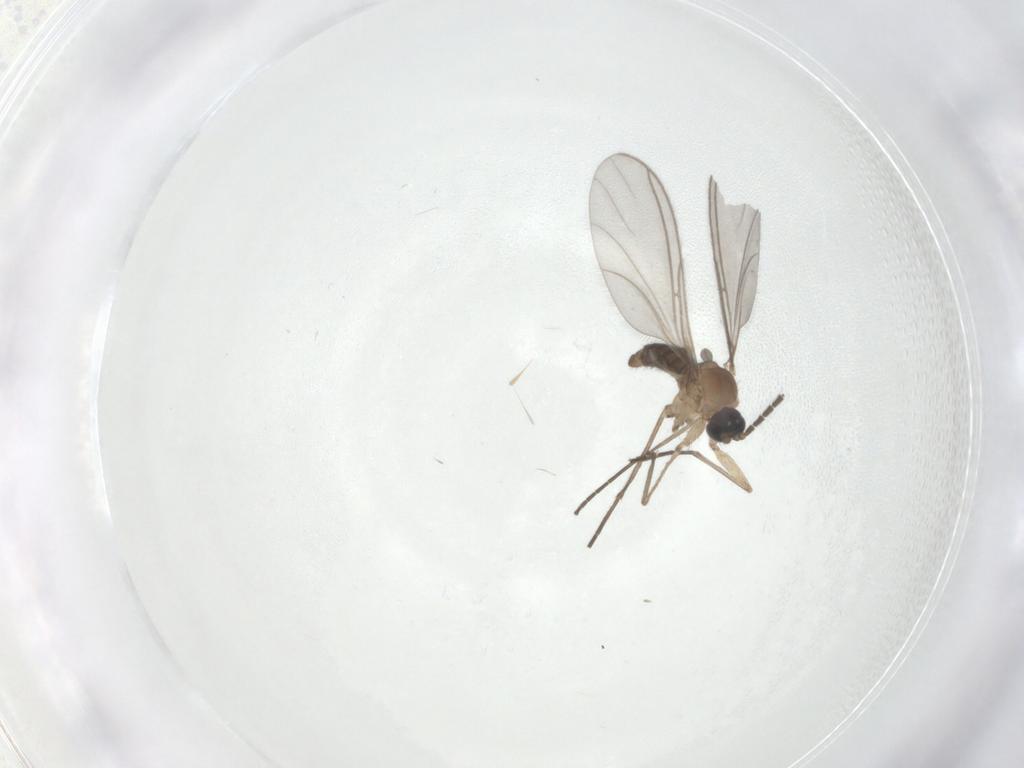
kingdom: Animalia
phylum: Arthropoda
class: Insecta
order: Diptera
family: Chironomidae
